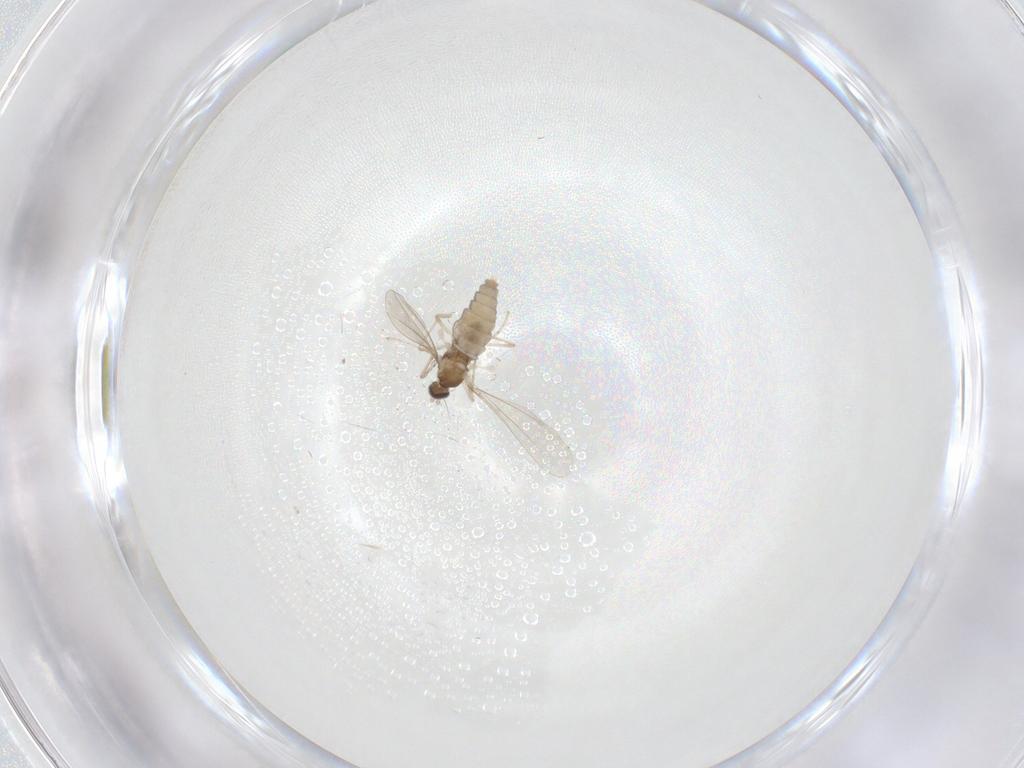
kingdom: Animalia
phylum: Arthropoda
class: Insecta
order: Diptera
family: Cecidomyiidae
